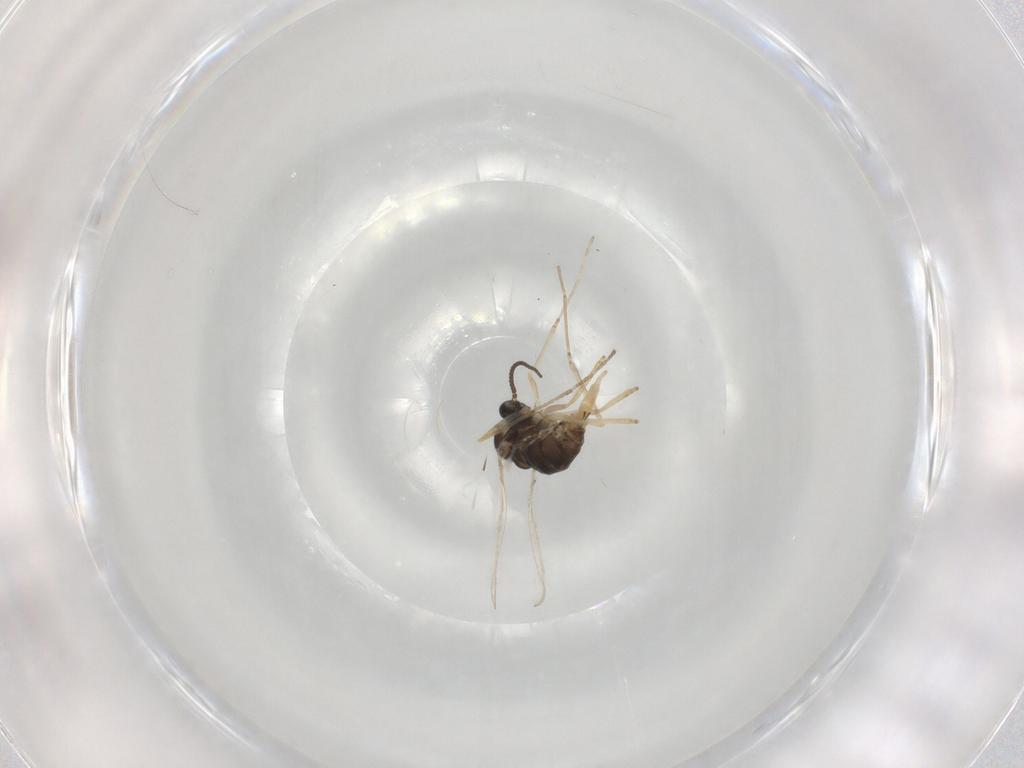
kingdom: Animalia
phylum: Arthropoda
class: Insecta
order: Diptera
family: Cecidomyiidae
